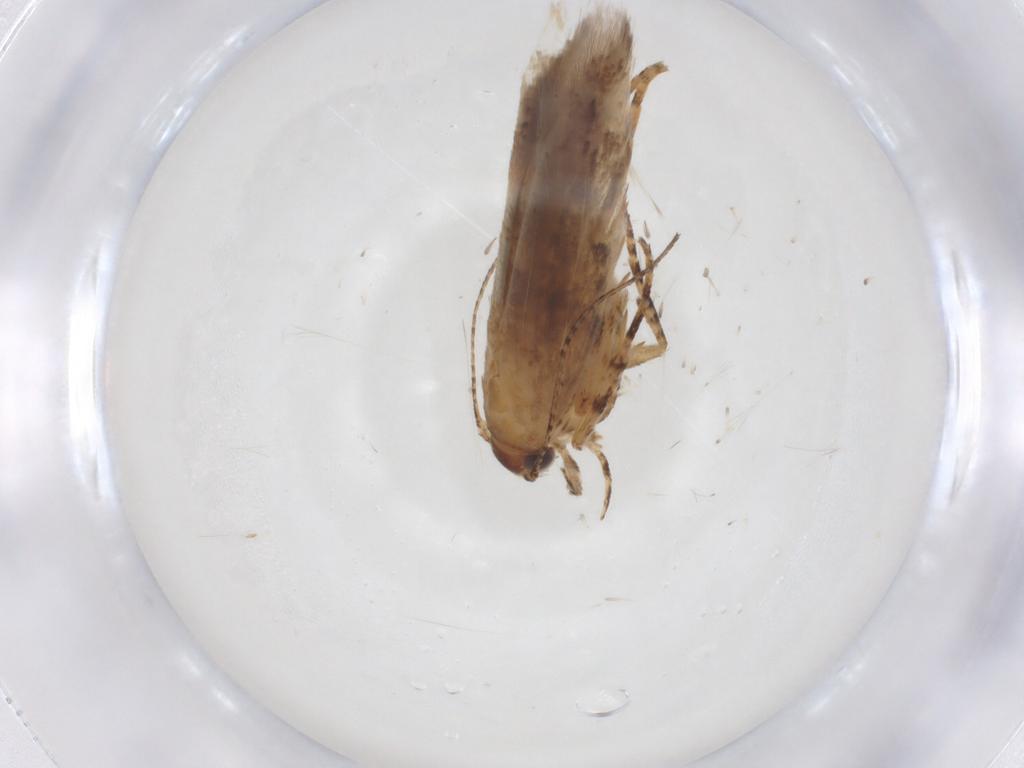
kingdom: Animalia
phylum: Arthropoda
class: Insecta
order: Lepidoptera
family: Gelechiidae
